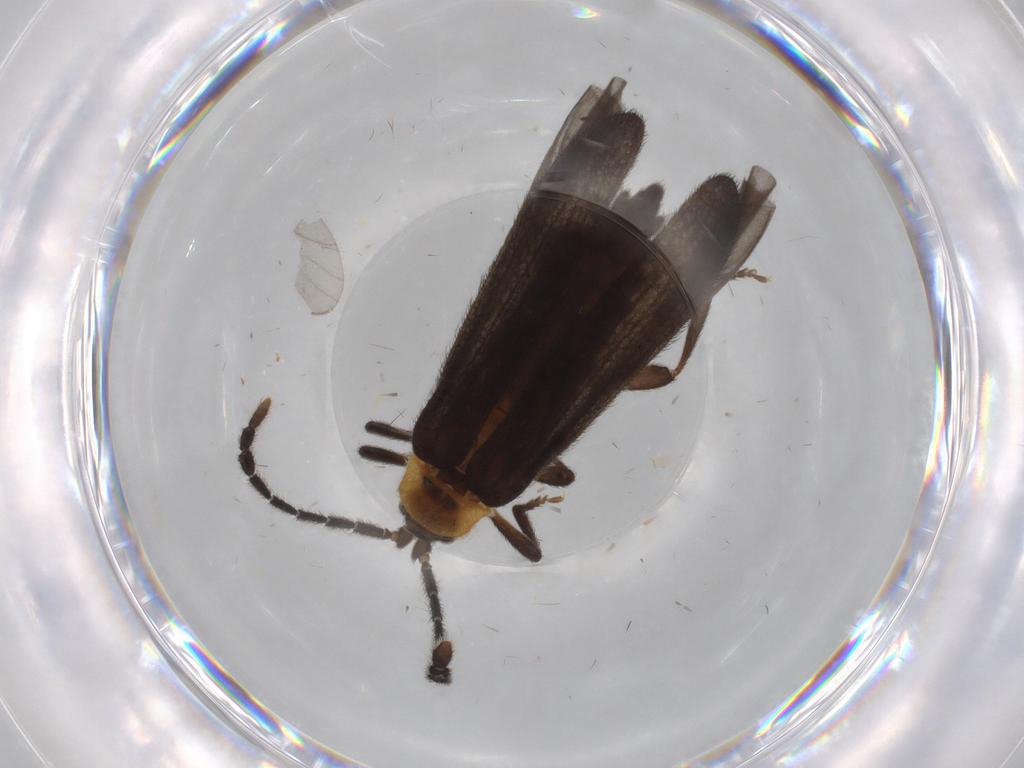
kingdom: Animalia
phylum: Arthropoda
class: Insecta
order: Coleoptera
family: Lycidae
